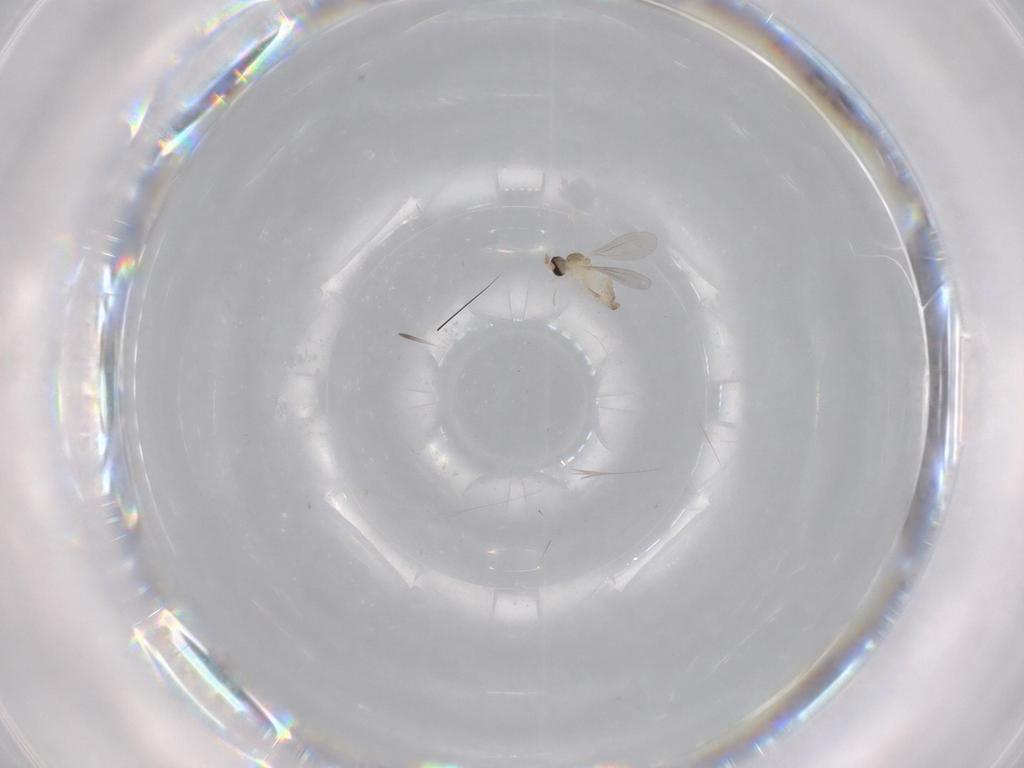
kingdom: Animalia
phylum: Arthropoda
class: Insecta
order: Diptera
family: Cecidomyiidae
